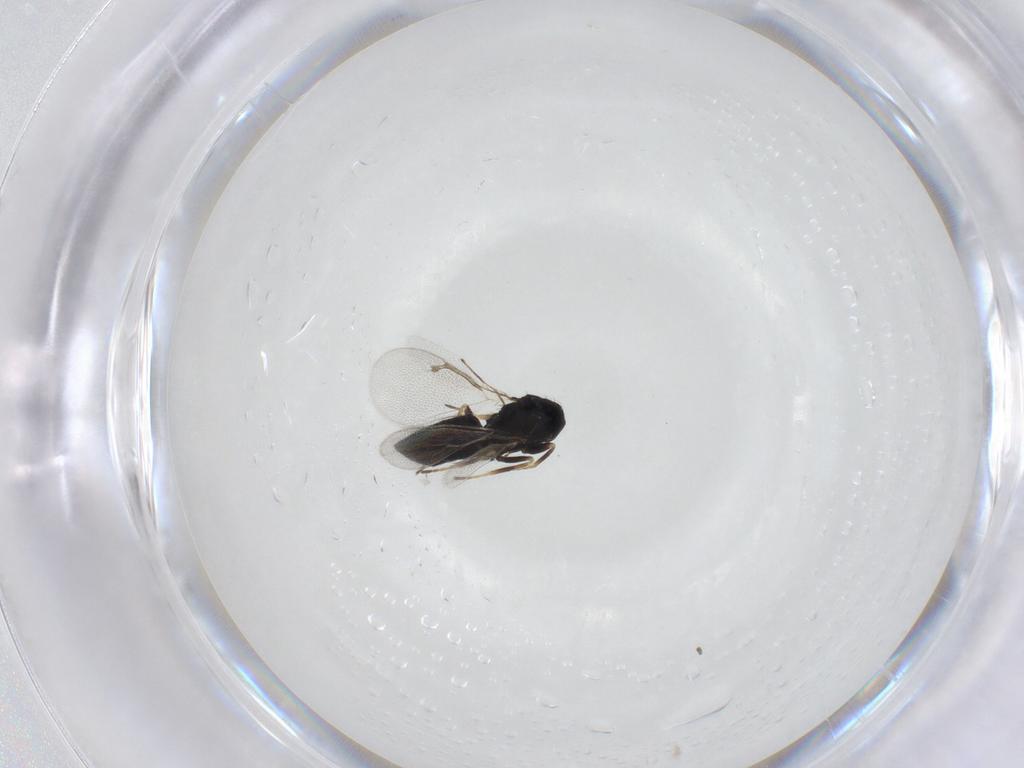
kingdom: Animalia
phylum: Arthropoda
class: Insecta
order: Hymenoptera
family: Eulophidae
